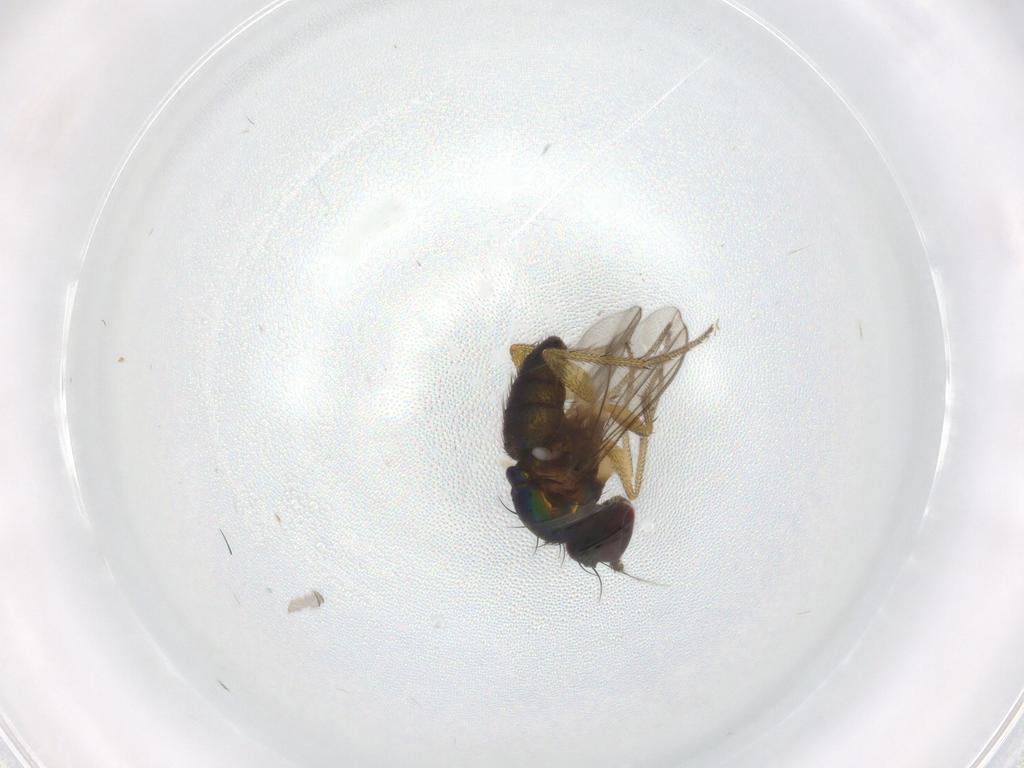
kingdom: Animalia
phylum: Arthropoda
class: Insecta
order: Diptera
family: Dolichopodidae
